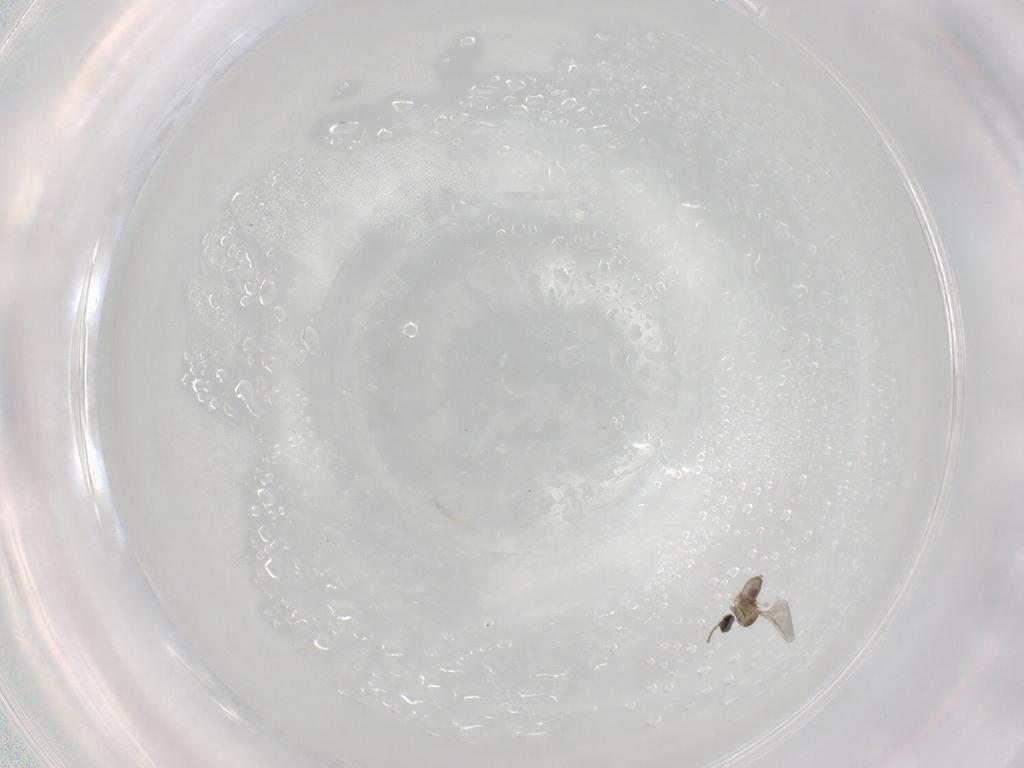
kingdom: Animalia
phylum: Arthropoda
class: Insecta
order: Diptera
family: Cecidomyiidae
